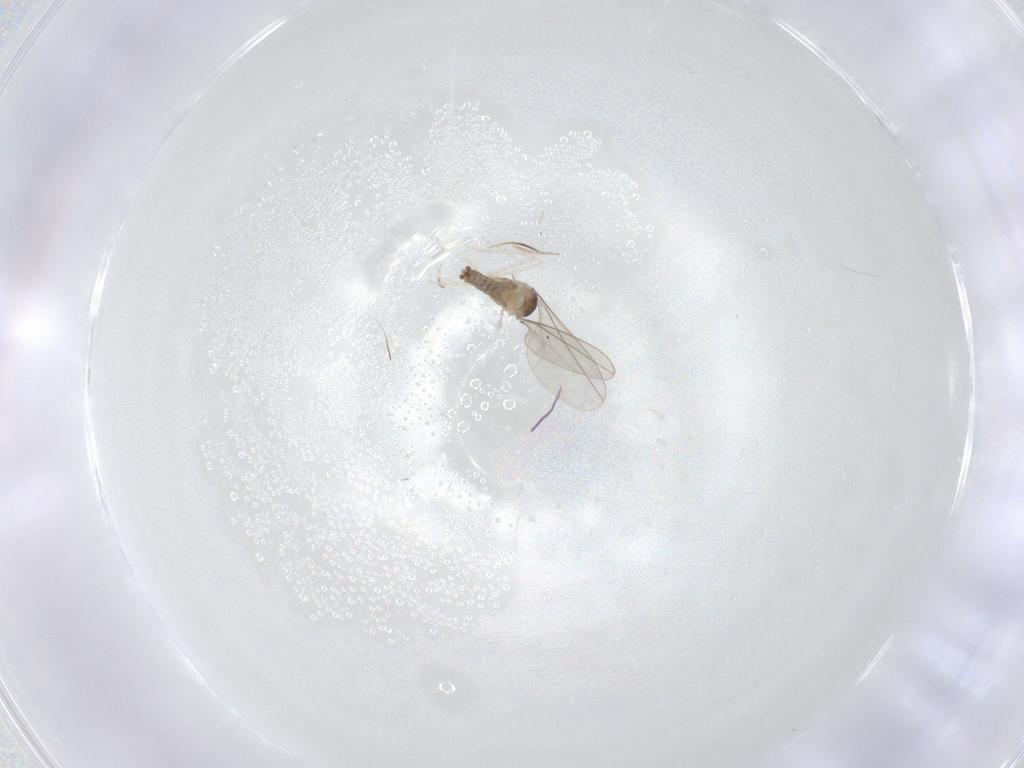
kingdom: Animalia
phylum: Arthropoda
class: Insecta
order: Diptera
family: Cecidomyiidae
